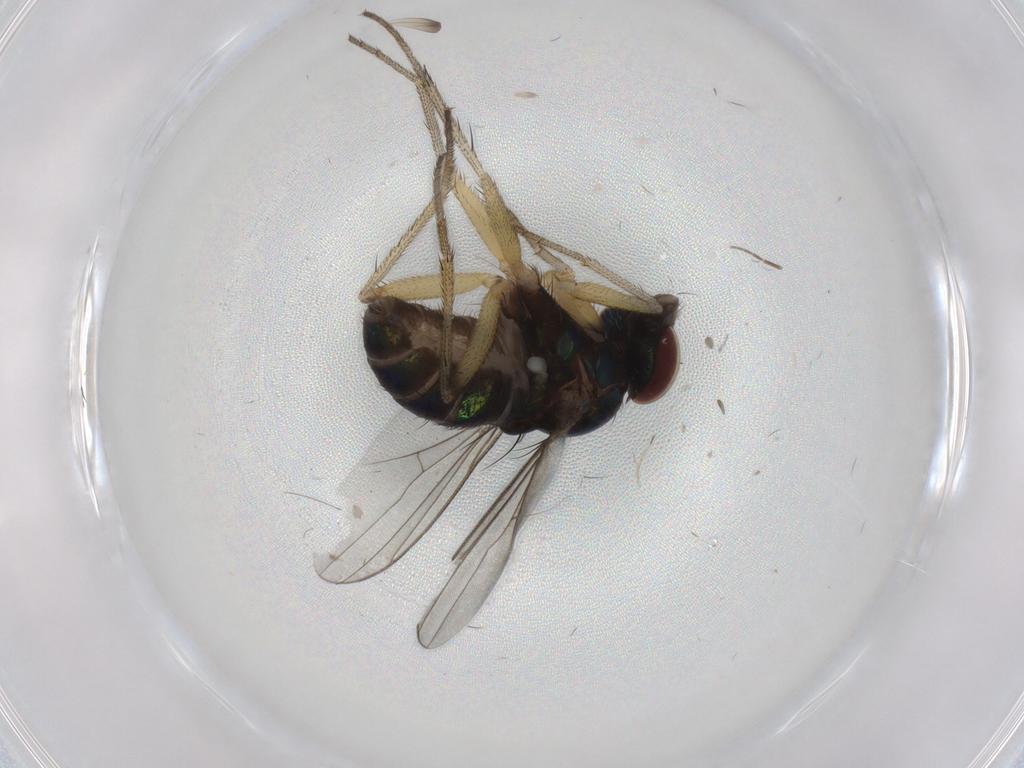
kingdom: Animalia
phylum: Arthropoda
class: Insecta
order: Diptera
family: Dolichopodidae
